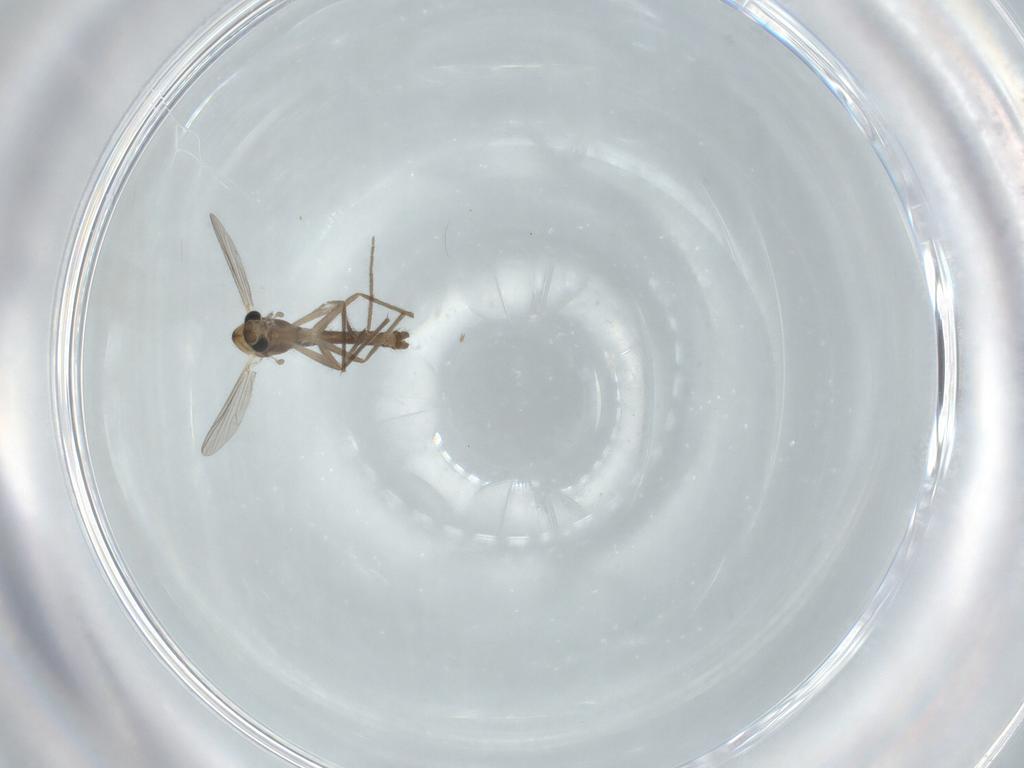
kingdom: Animalia
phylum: Arthropoda
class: Insecta
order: Diptera
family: Chironomidae
